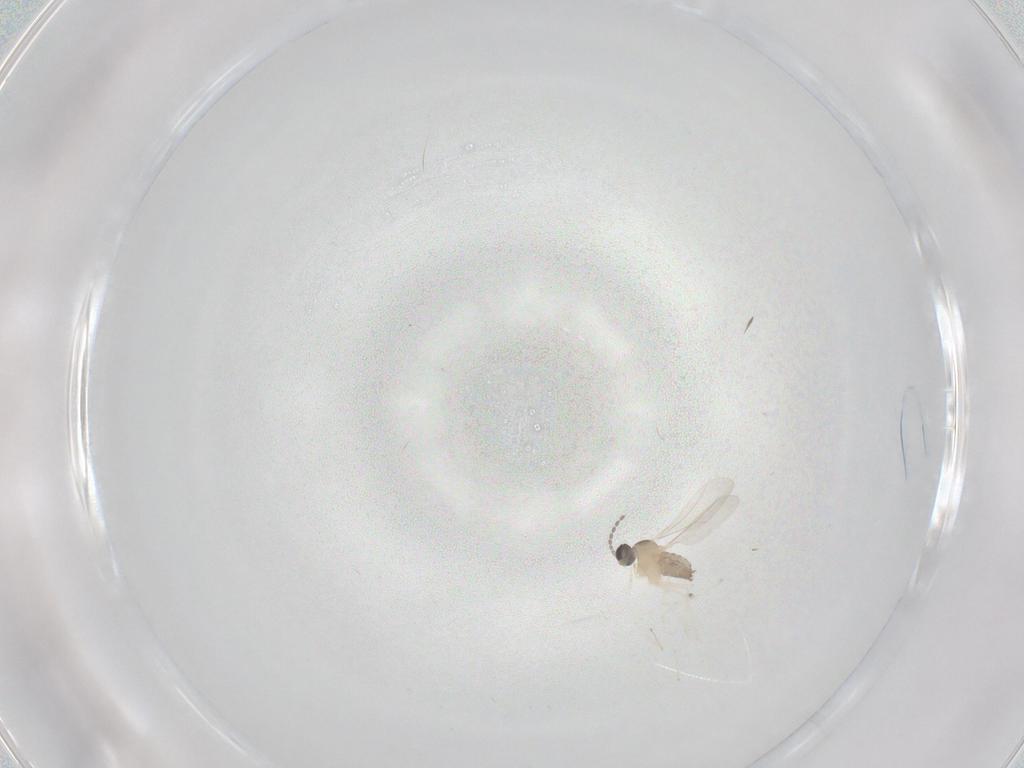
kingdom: Animalia
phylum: Arthropoda
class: Insecta
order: Diptera
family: Cecidomyiidae
